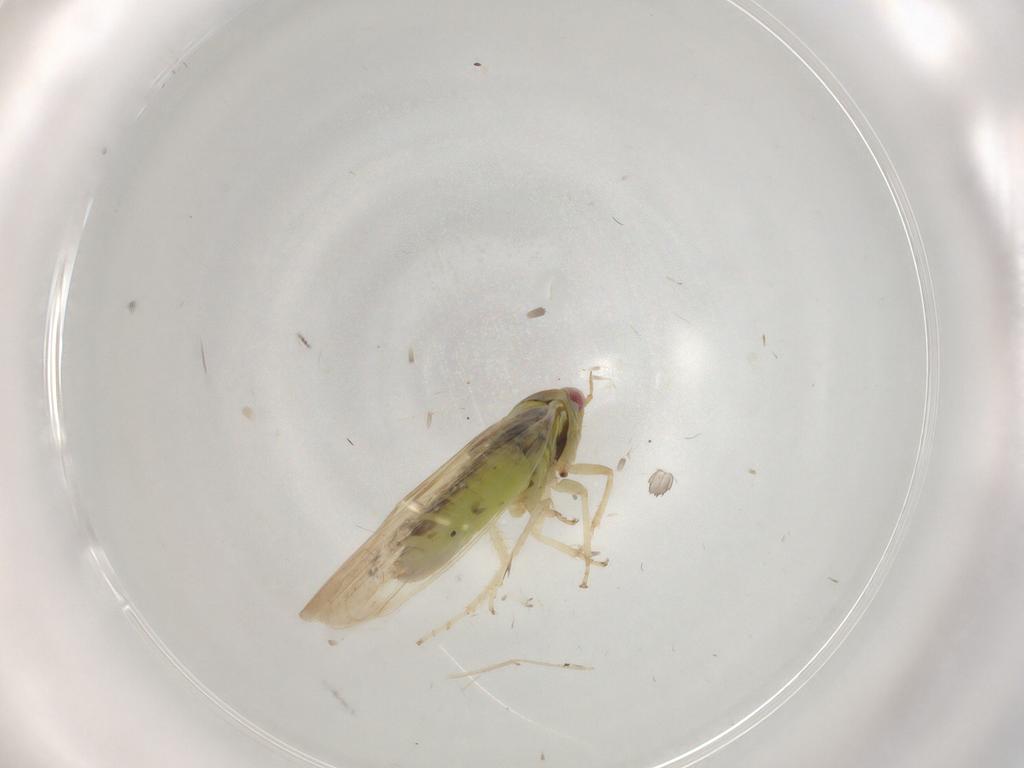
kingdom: Animalia
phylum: Arthropoda
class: Insecta
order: Hemiptera
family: Cicadellidae
